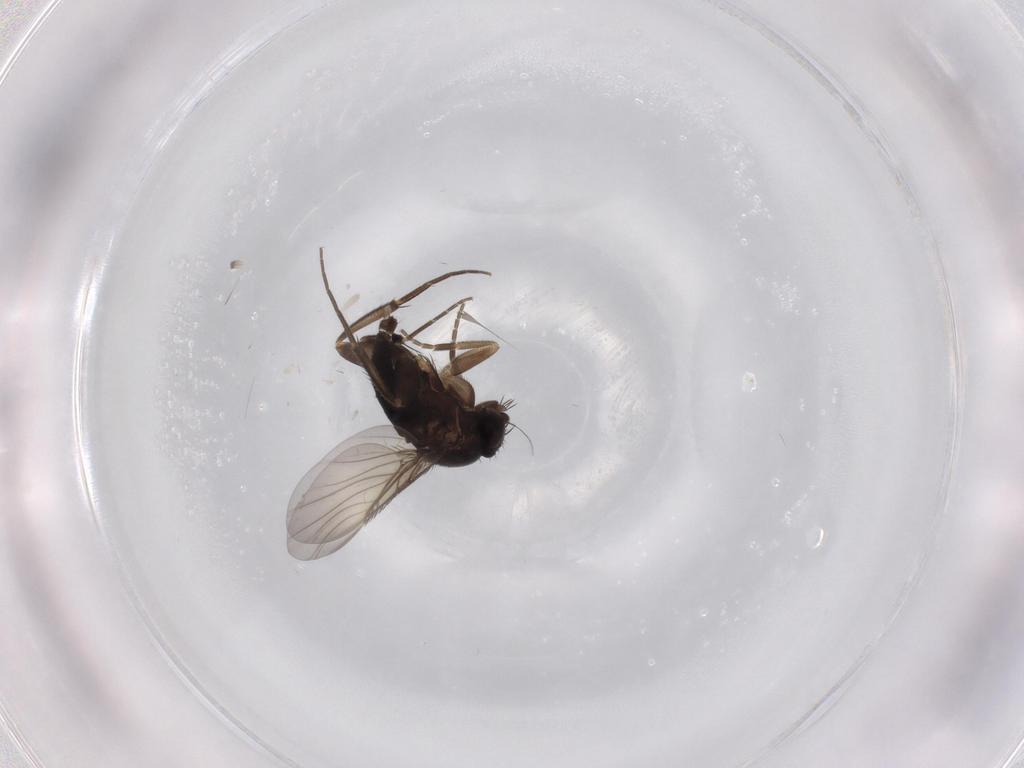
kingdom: Animalia
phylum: Arthropoda
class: Insecta
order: Diptera
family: Phoridae
